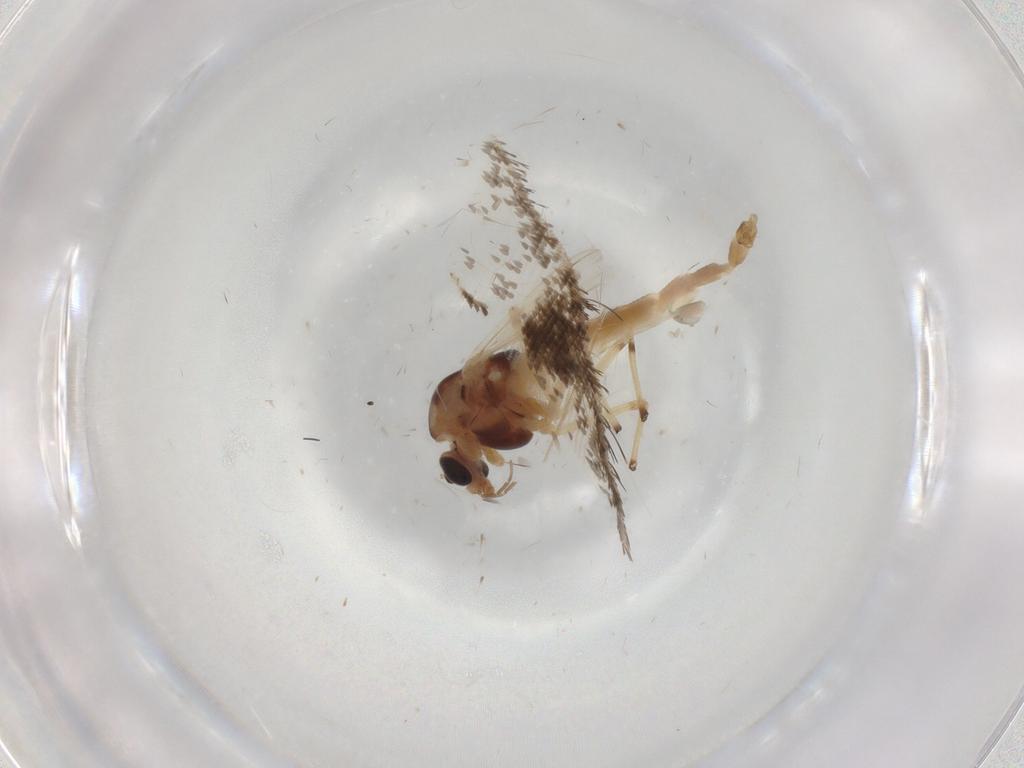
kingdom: Animalia
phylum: Arthropoda
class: Insecta
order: Diptera
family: Chironomidae
